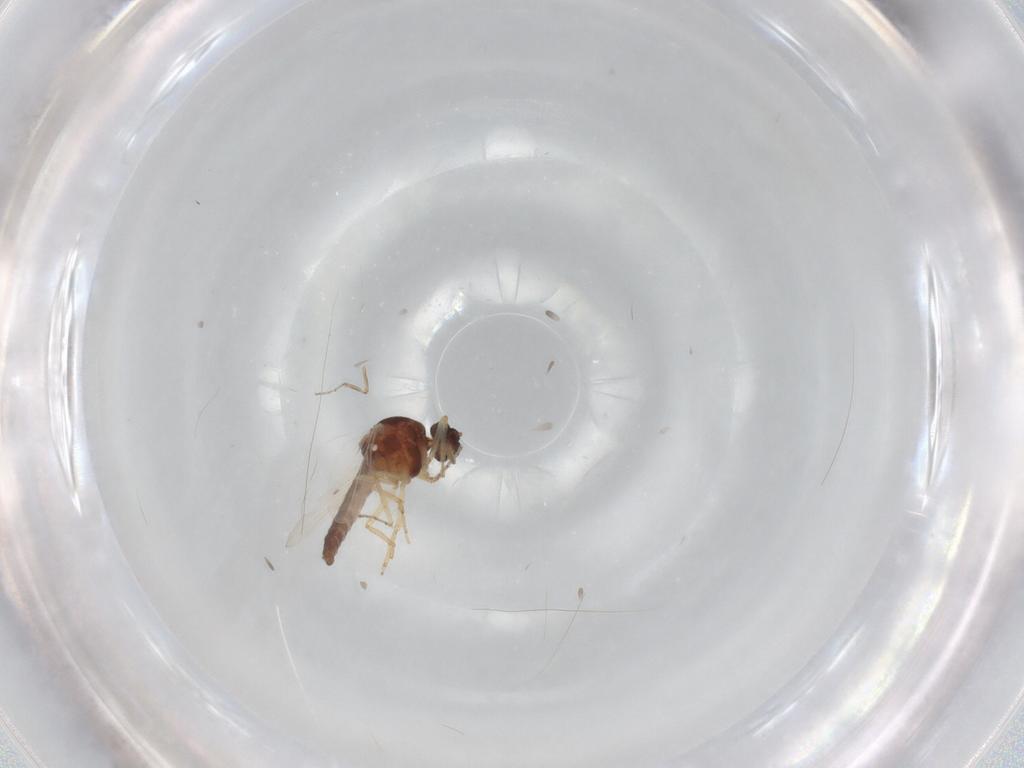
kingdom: Animalia
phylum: Arthropoda
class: Insecta
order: Diptera
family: Ceratopogonidae
